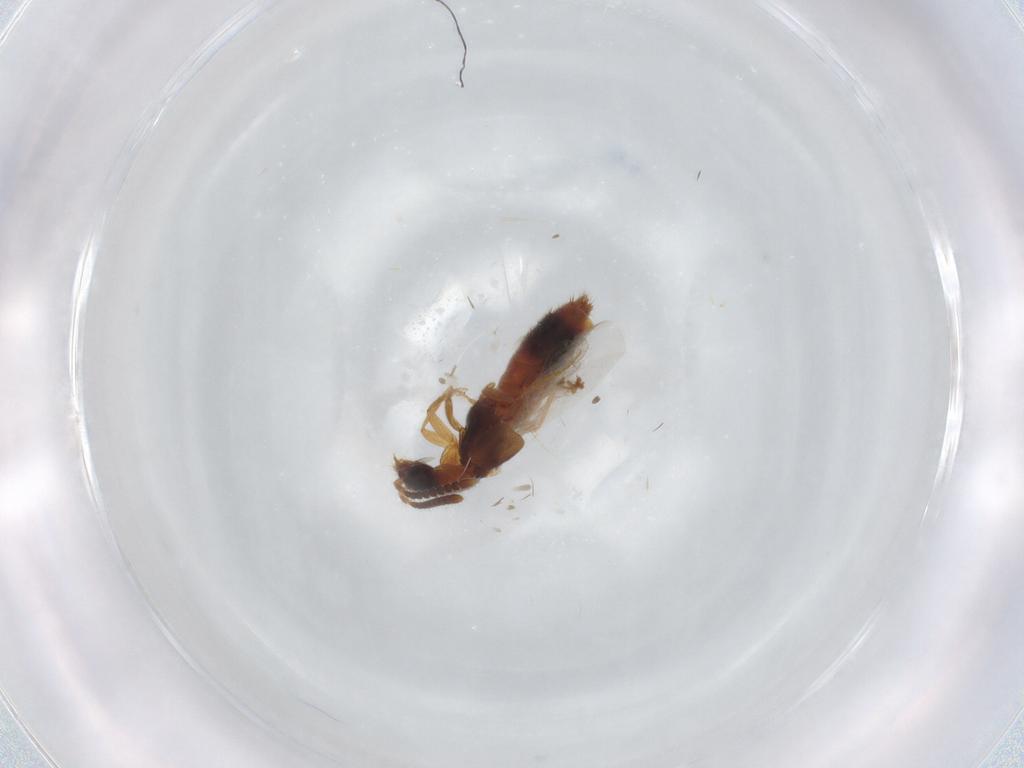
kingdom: Animalia
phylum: Arthropoda
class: Insecta
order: Coleoptera
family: Staphylinidae
